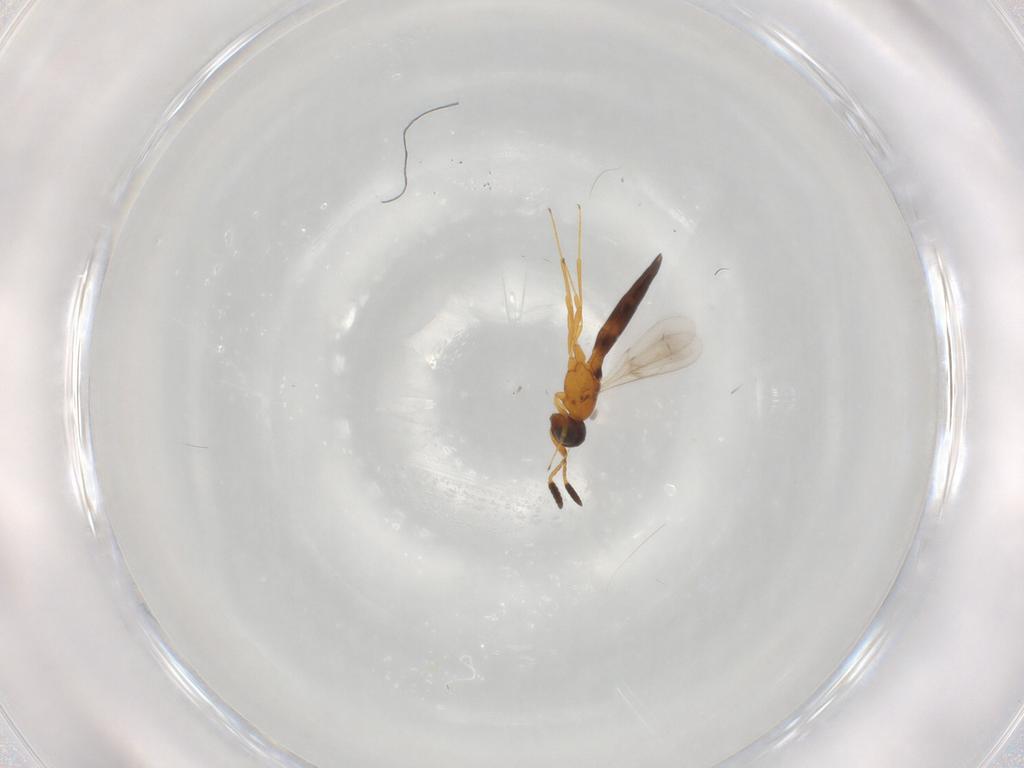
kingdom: Animalia
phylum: Arthropoda
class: Insecta
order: Hymenoptera
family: Scelionidae
